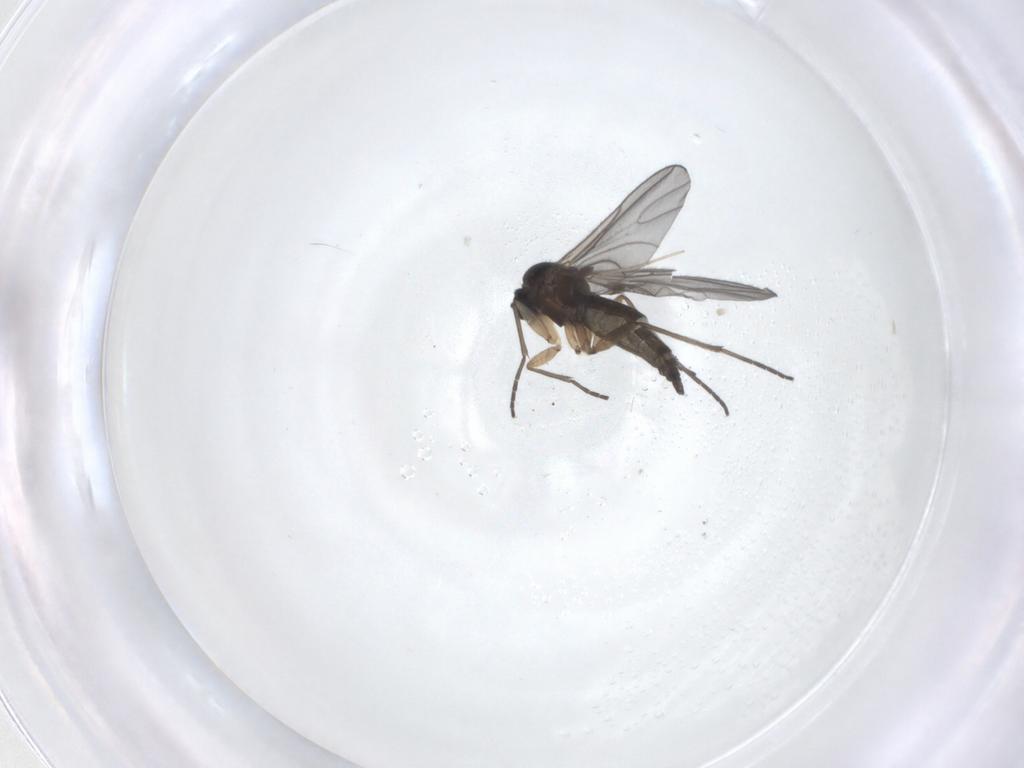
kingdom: Animalia
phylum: Arthropoda
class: Insecta
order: Diptera
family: Sciaridae
